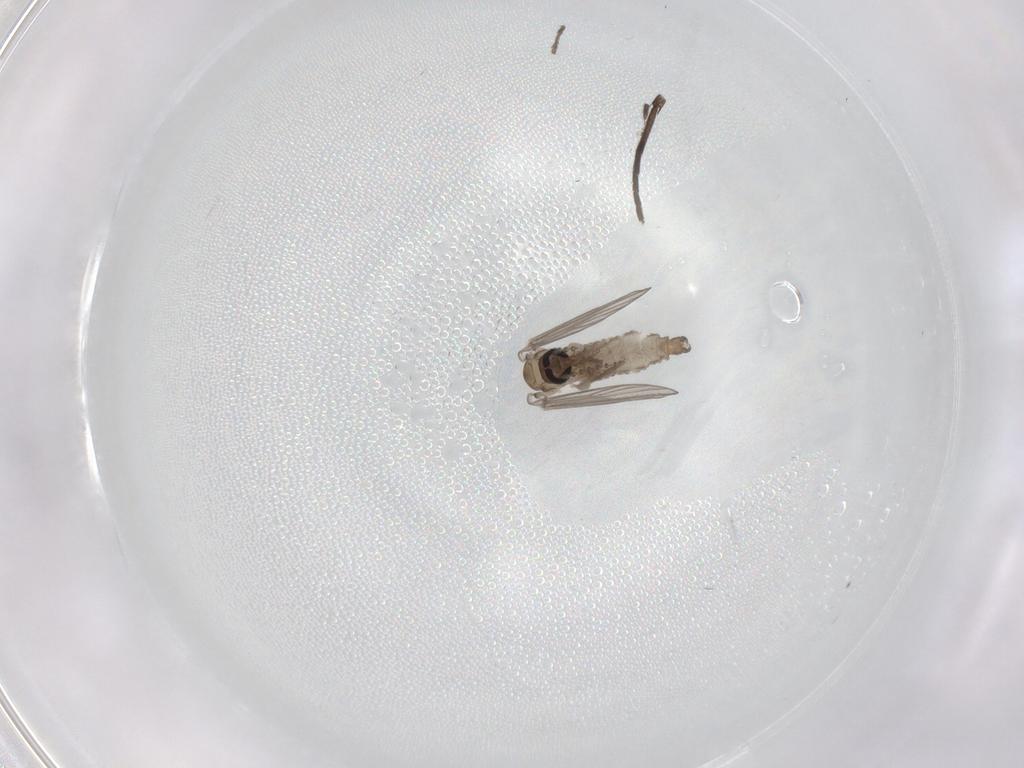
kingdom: Animalia
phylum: Arthropoda
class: Insecta
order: Diptera
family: Psychodidae
